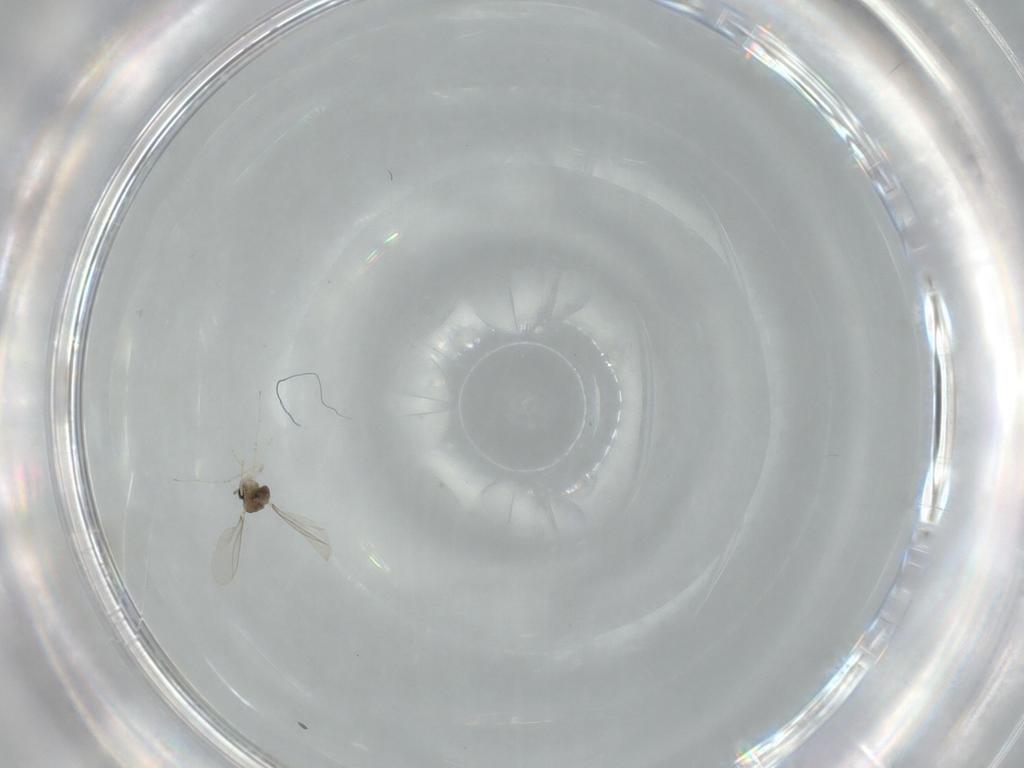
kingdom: Animalia
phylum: Arthropoda
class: Insecta
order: Diptera
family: Cecidomyiidae
